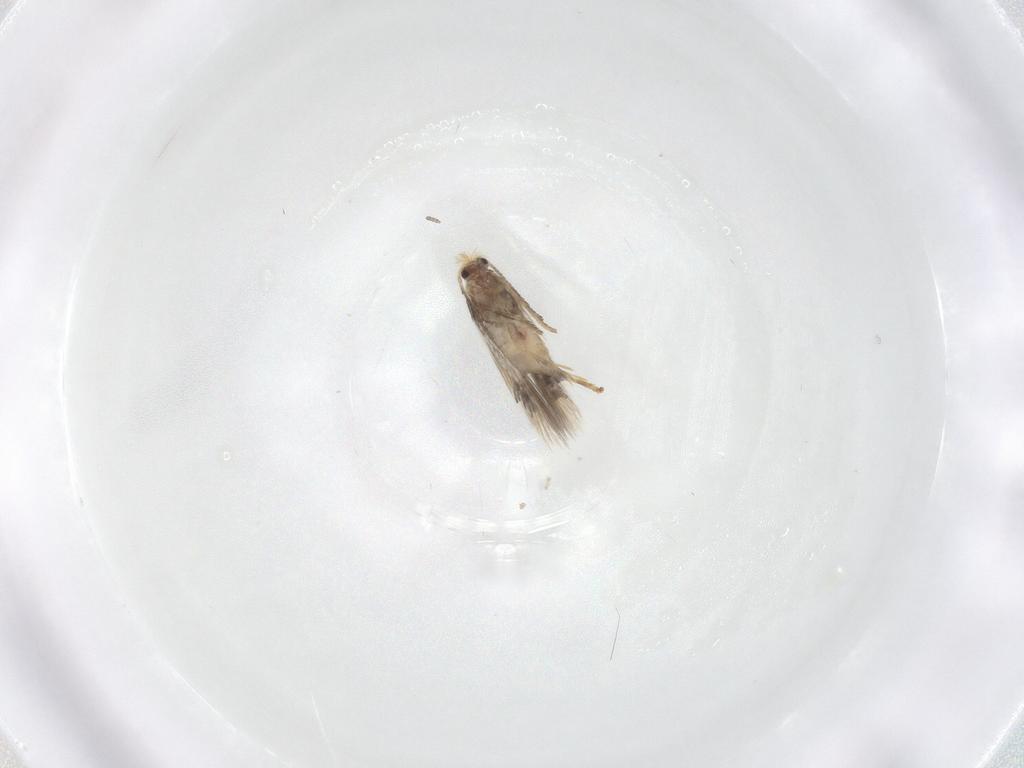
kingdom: Animalia
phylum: Arthropoda
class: Insecta
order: Lepidoptera
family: Nepticulidae
